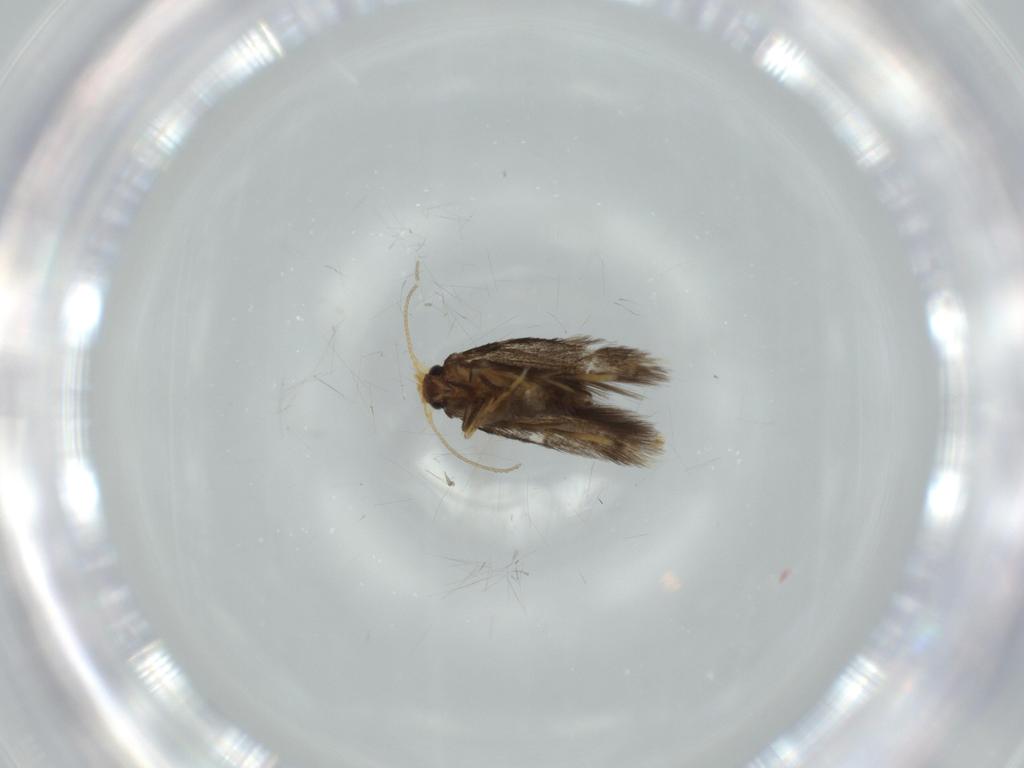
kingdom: Animalia
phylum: Arthropoda
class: Insecta
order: Lepidoptera
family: Nepticulidae
